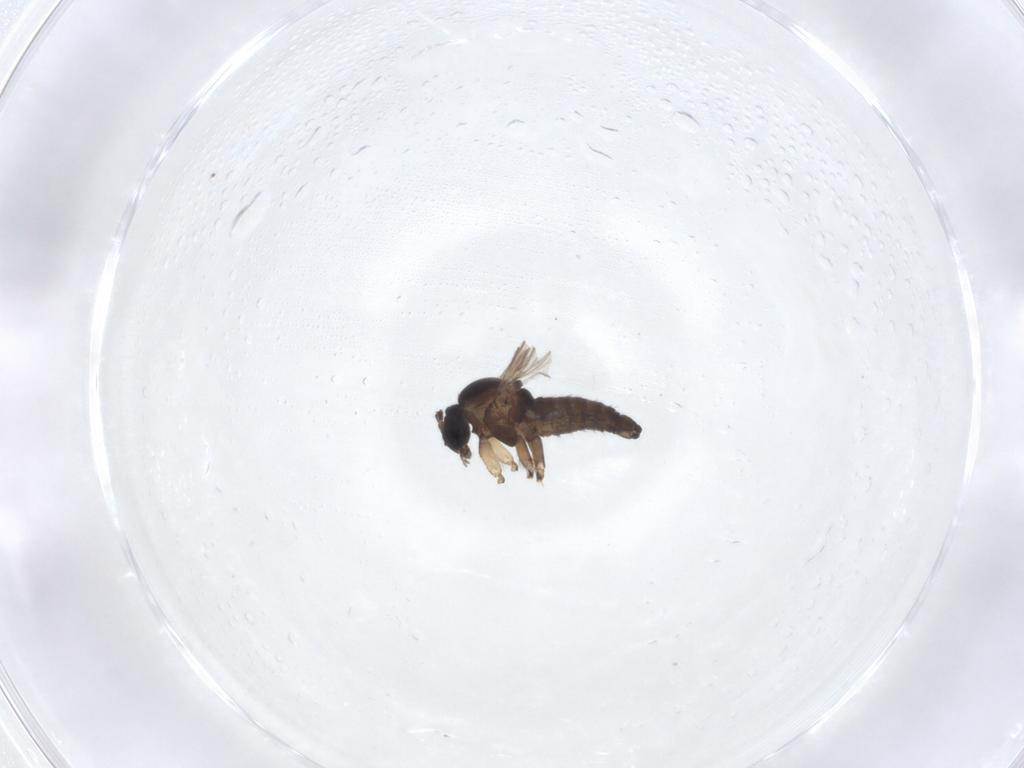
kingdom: Animalia
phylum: Arthropoda
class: Insecta
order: Diptera
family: Sciaridae
